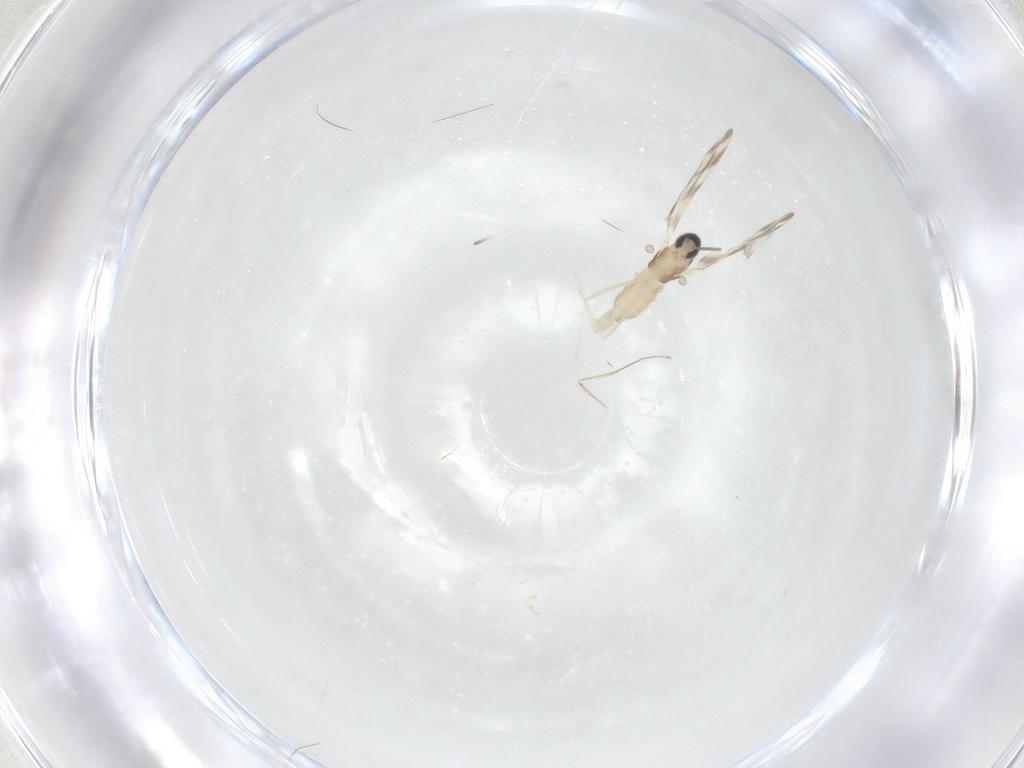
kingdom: Animalia
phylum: Arthropoda
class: Insecta
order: Diptera
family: Cecidomyiidae
